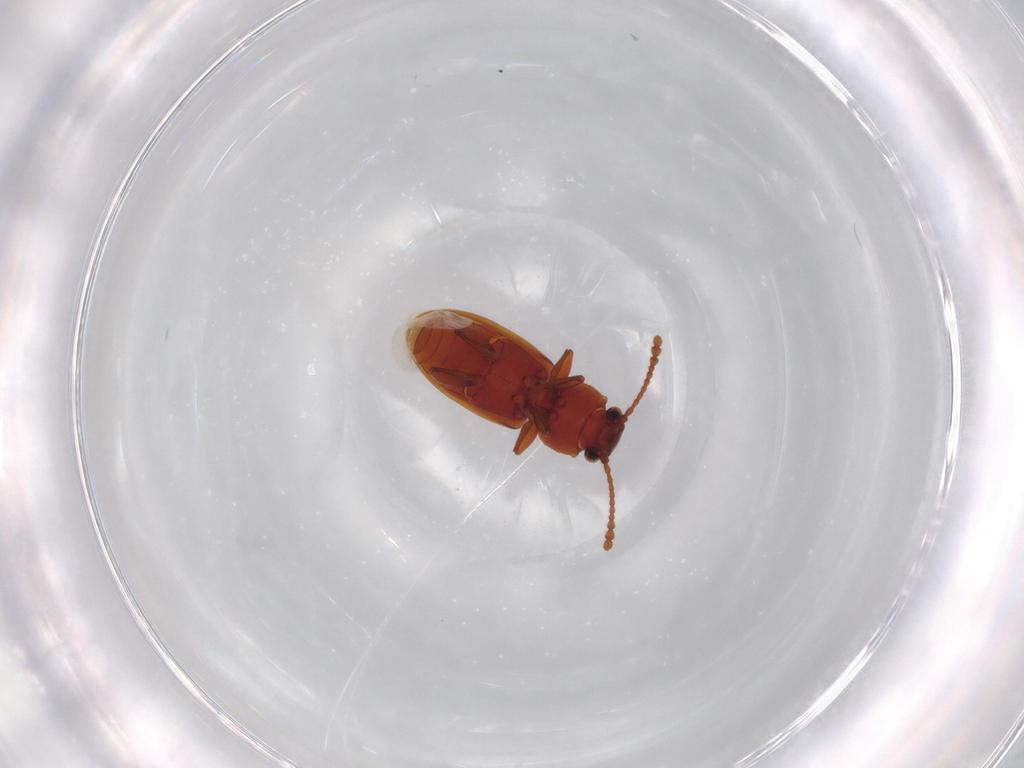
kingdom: Animalia
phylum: Arthropoda
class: Insecta
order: Coleoptera
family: Silvanidae
